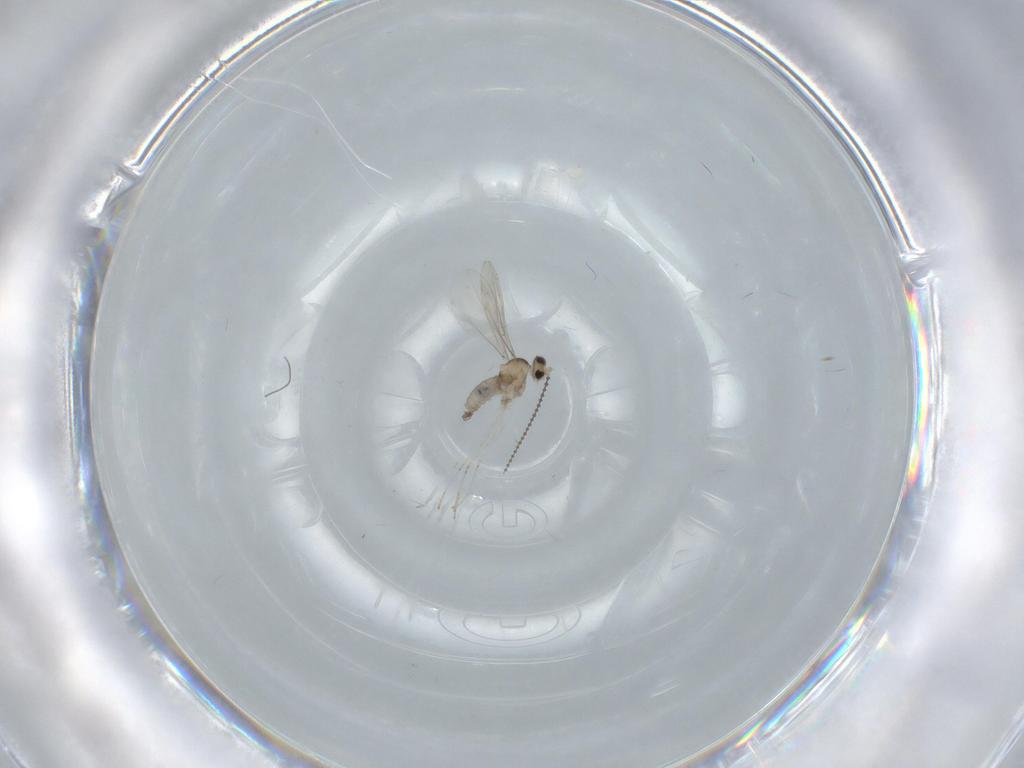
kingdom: Animalia
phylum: Arthropoda
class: Insecta
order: Diptera
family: Cecidomyiidae
